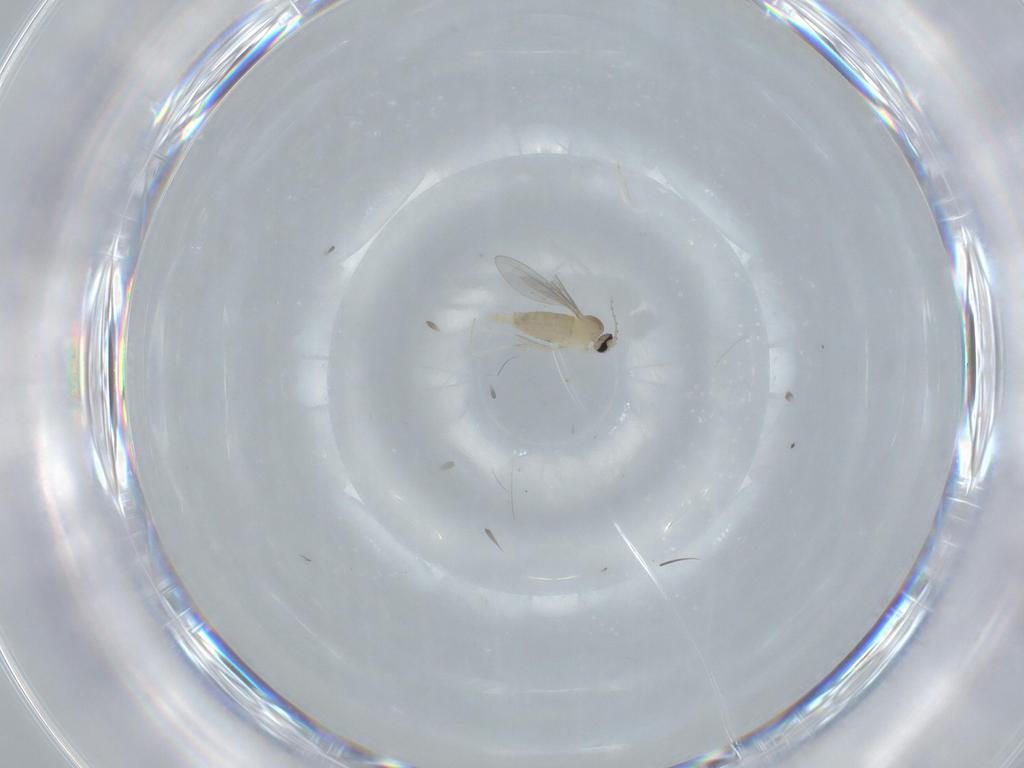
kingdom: Animalia
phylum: Arthropoda
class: Insecta
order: Diptera
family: Cecidomyiidae
